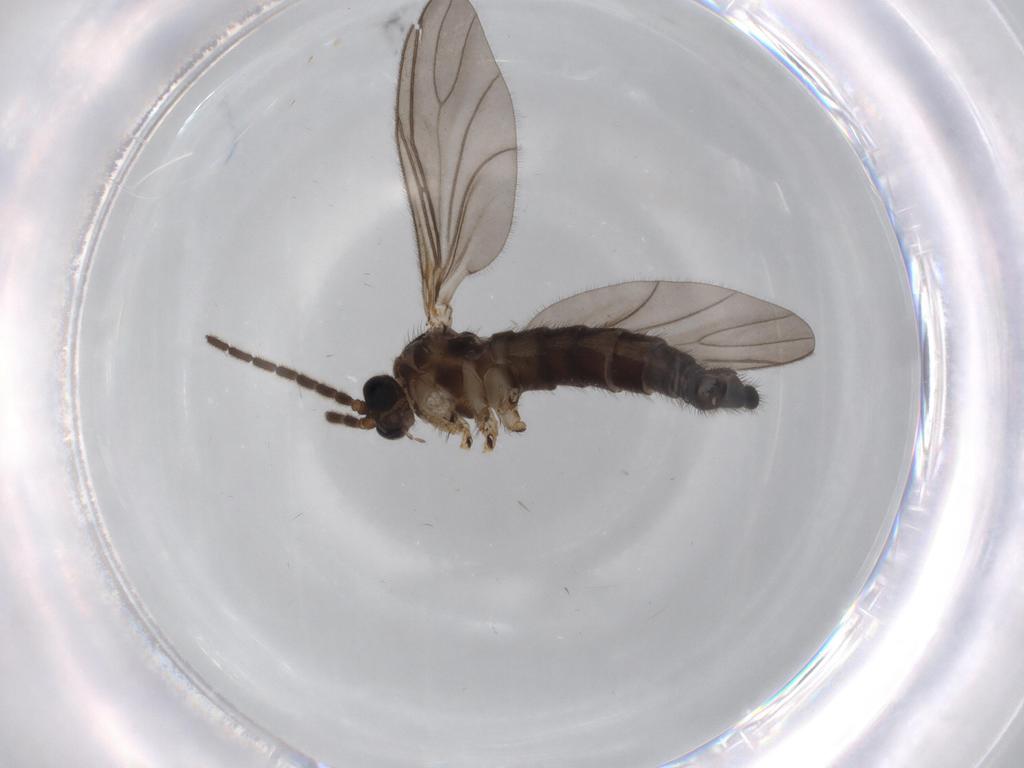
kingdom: Animalia
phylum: Arthropoda
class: Insecta
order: Diptera
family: Sciaridae
